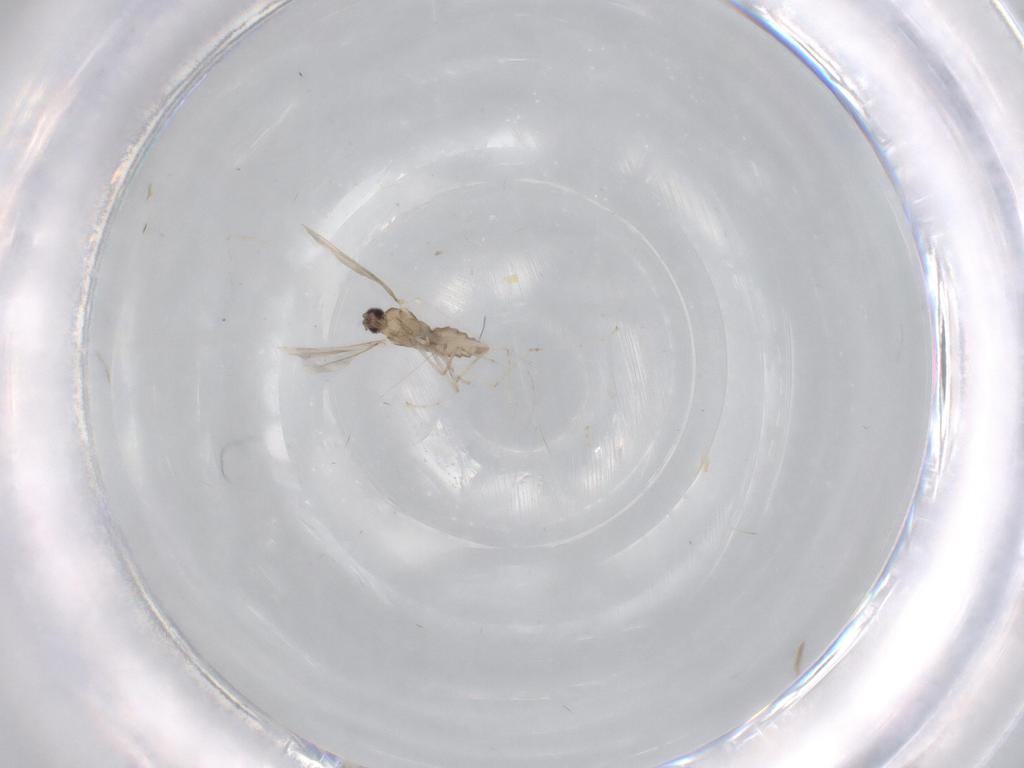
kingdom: Animalia
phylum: Arthropoda
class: Insecta
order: Diptera
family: Cecidomyiidae
